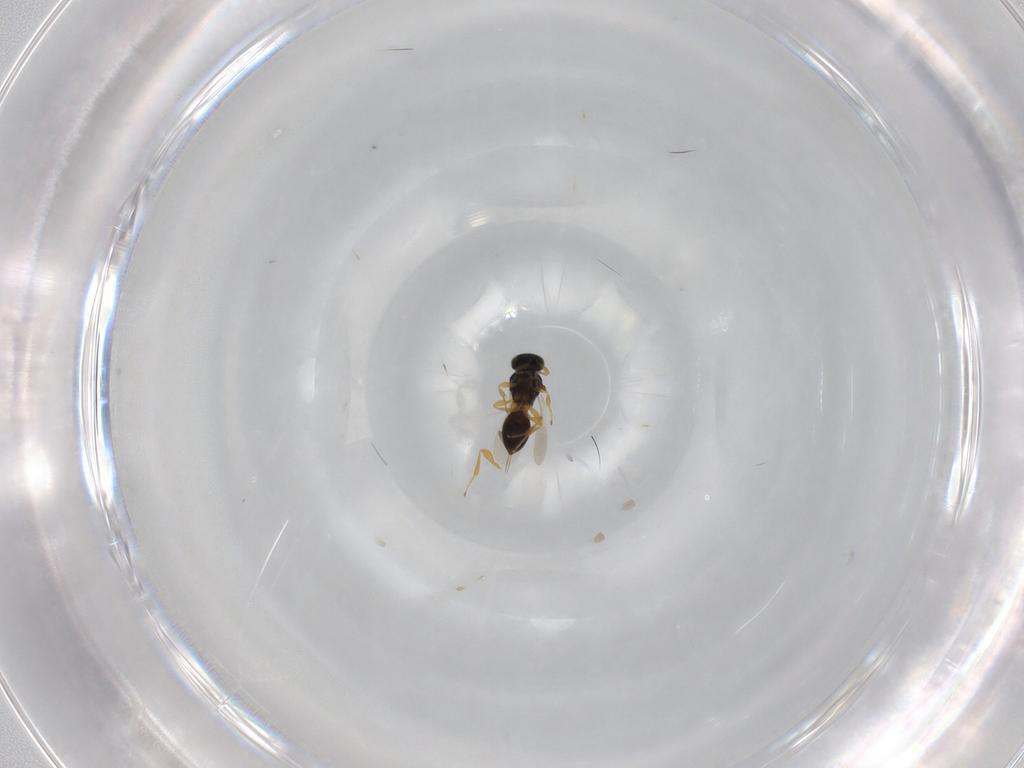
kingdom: Animalia
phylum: Arthropoda
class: Insecta
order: Hymenoptera
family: Platygastridae
